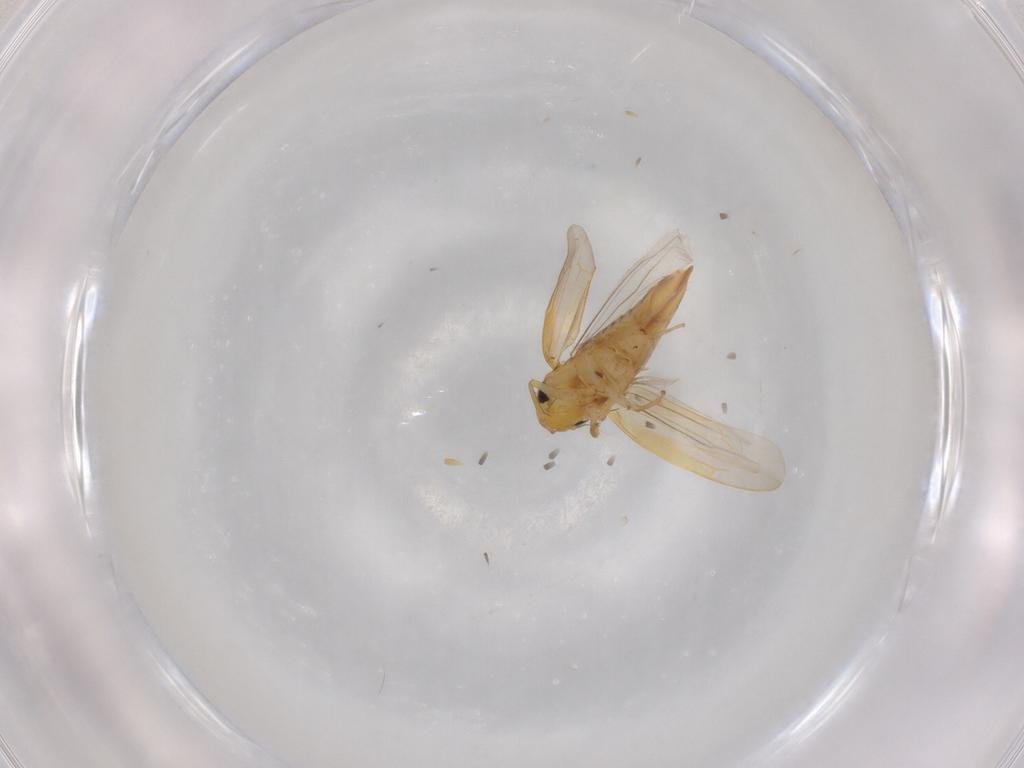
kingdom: Animalia
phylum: Arthropoda
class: Insecta
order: Hemiptera
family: Cicadellidae
